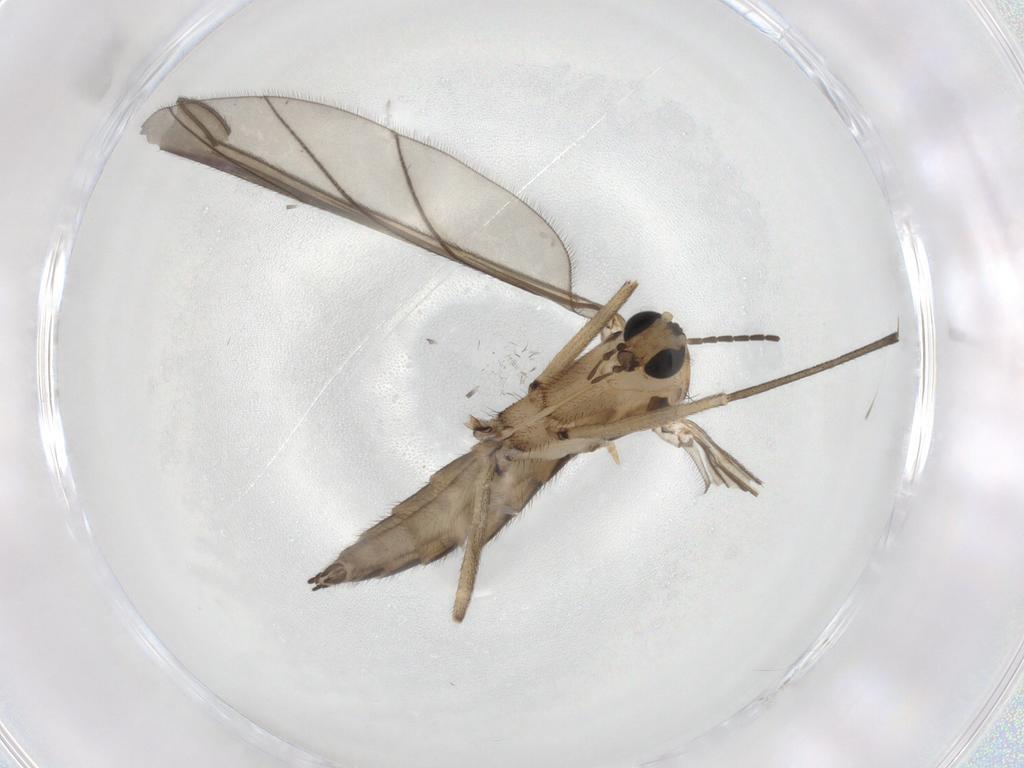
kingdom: Animalia
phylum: Arthropoda
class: Insecta
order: Diptera
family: Sciaridae
